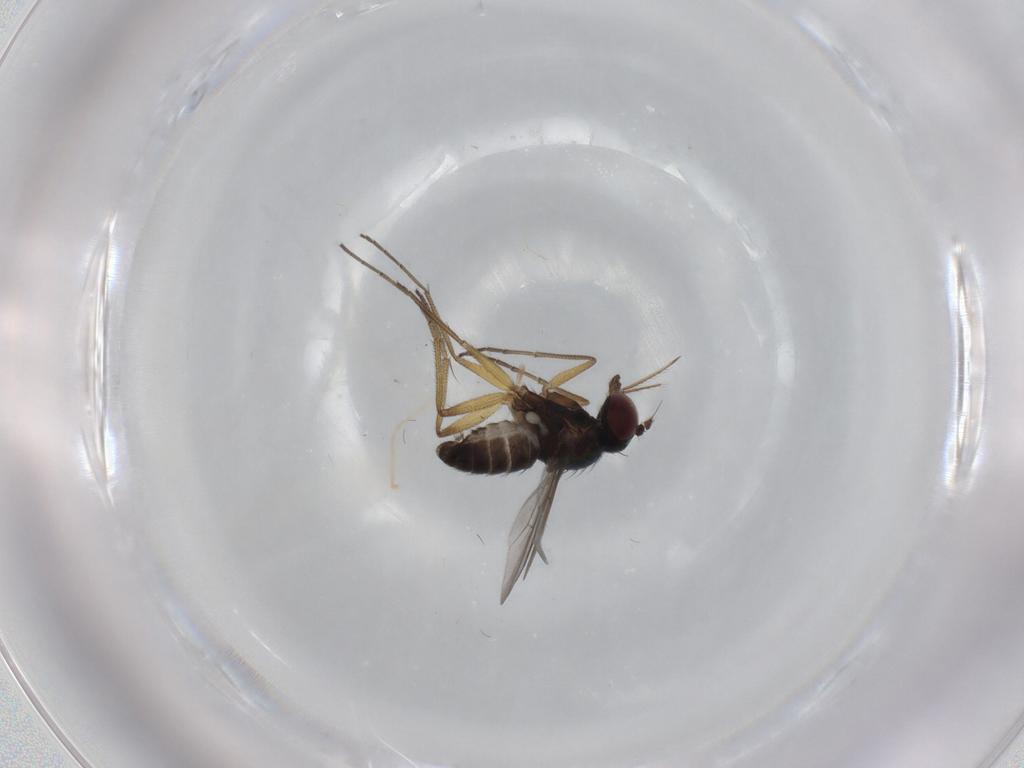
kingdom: Animalia
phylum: Arthropoda
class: Insecta
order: Diptera
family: Dolichopodidae
